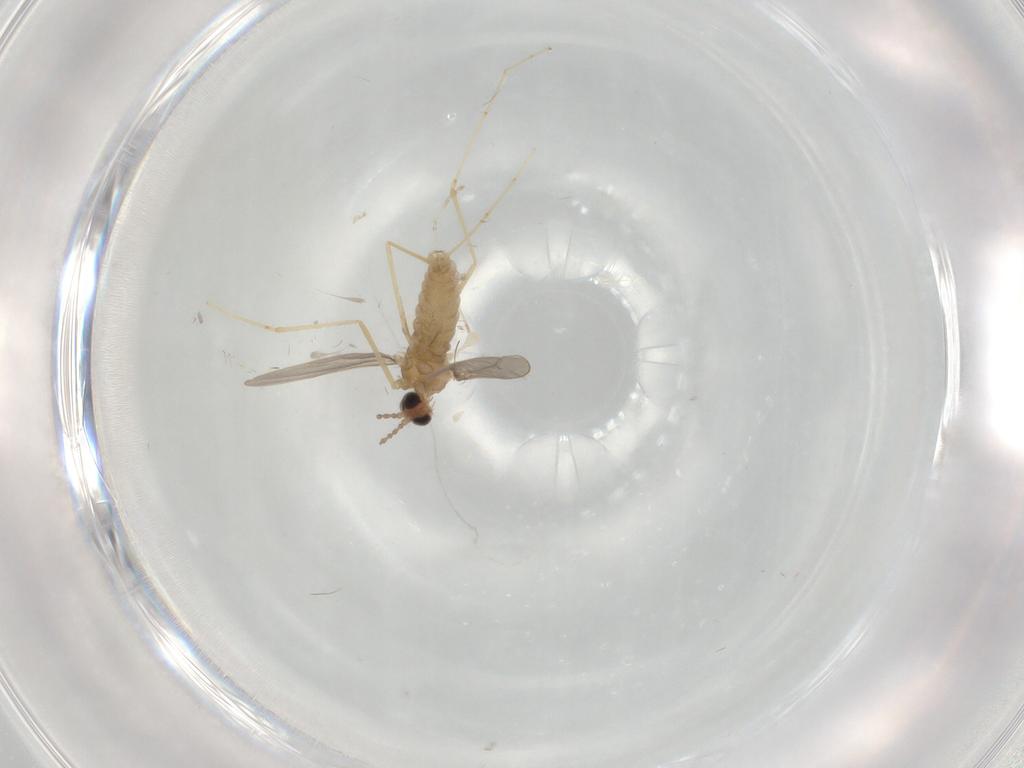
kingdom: Animalia
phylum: Arthropoda
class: Insecta
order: Diptera
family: Cecidomyiidae
